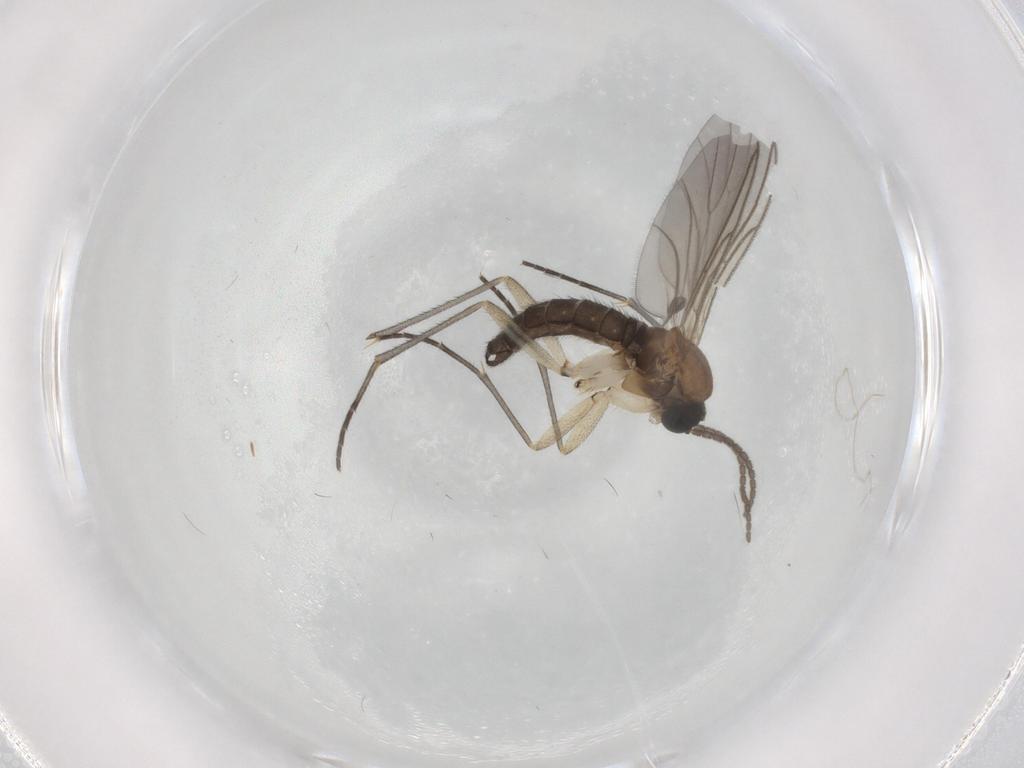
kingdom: Animalia
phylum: Arthropoda
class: Insecta
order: Diptera
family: Sciaridae
